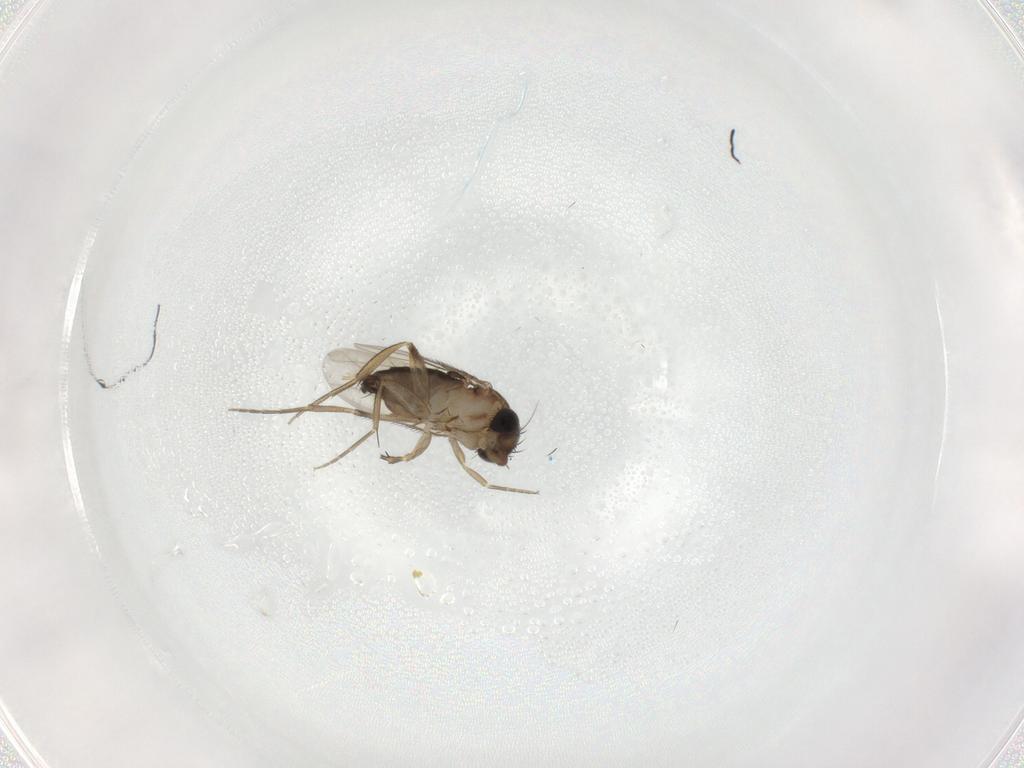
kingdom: Animalia
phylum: Arthropoda
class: Insecta
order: Diptera
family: Phoridae
